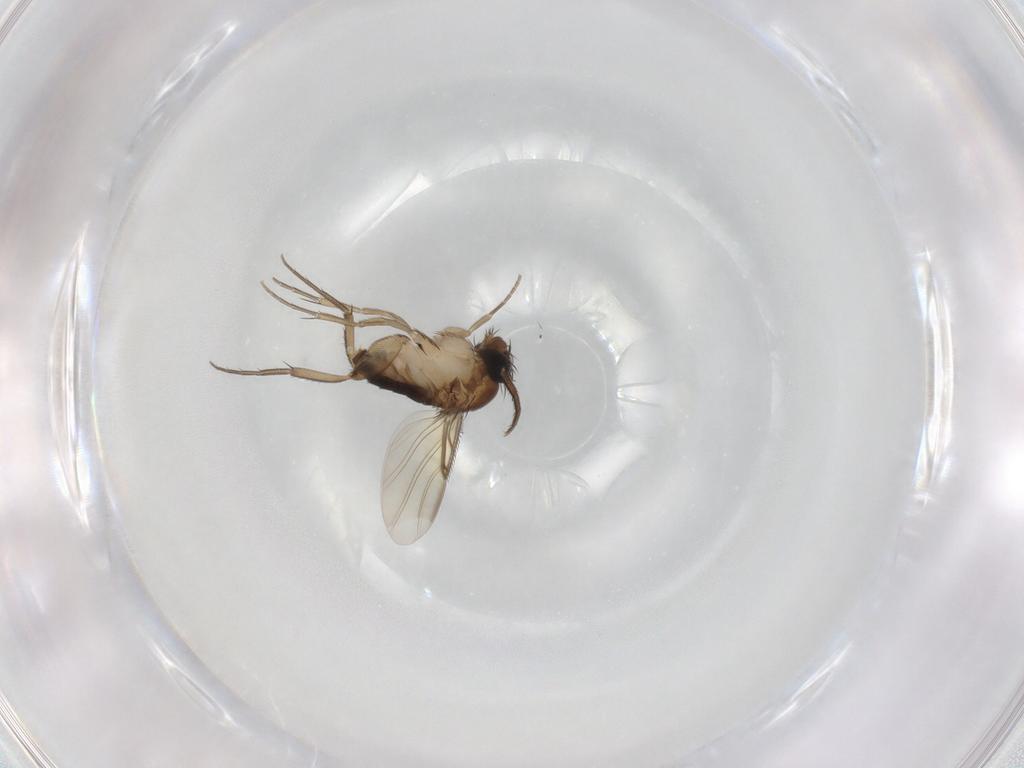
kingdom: Animalia
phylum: Arthropoda
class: Insecta
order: Diptera
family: Phoridae
